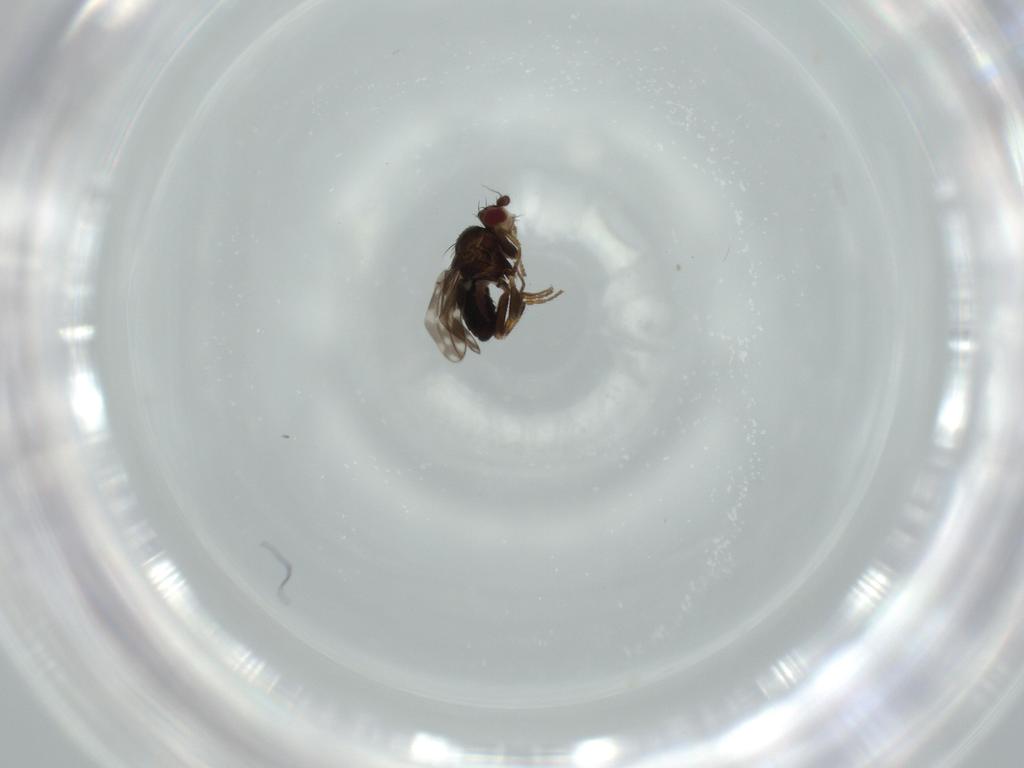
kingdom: Animalia
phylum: Arthropoda
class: Insecta
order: Diptera
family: Sphaeroceridae
